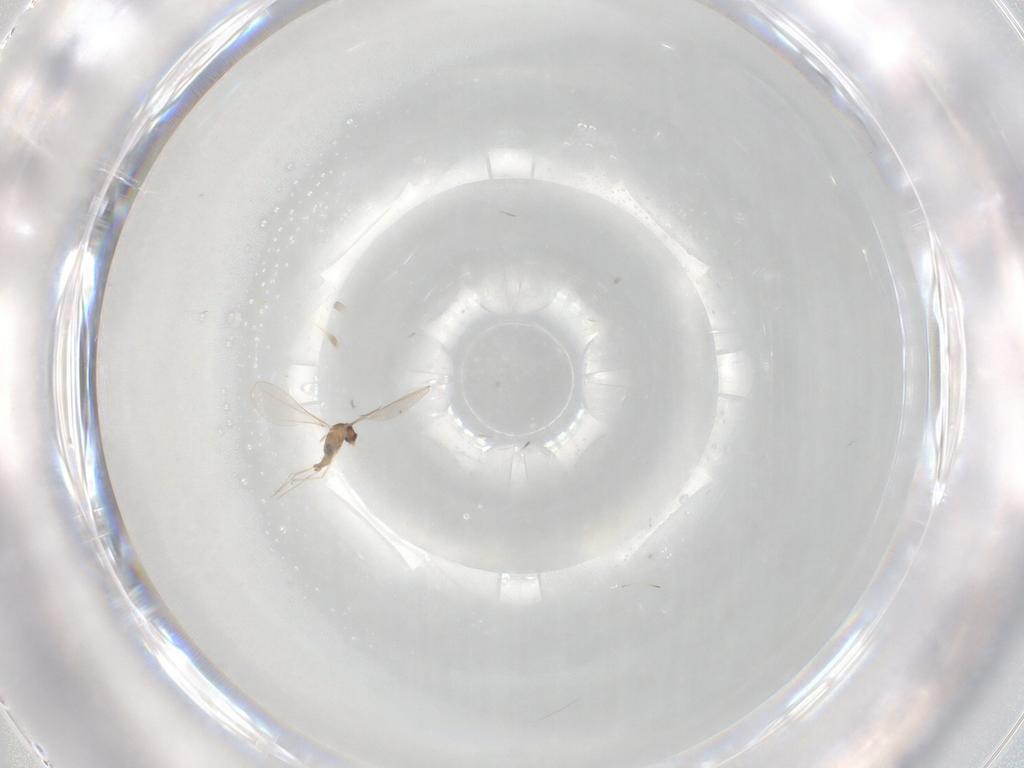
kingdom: Animalia
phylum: Arthropoda
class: Insecta
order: Diptera
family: Cecidomyiidae
